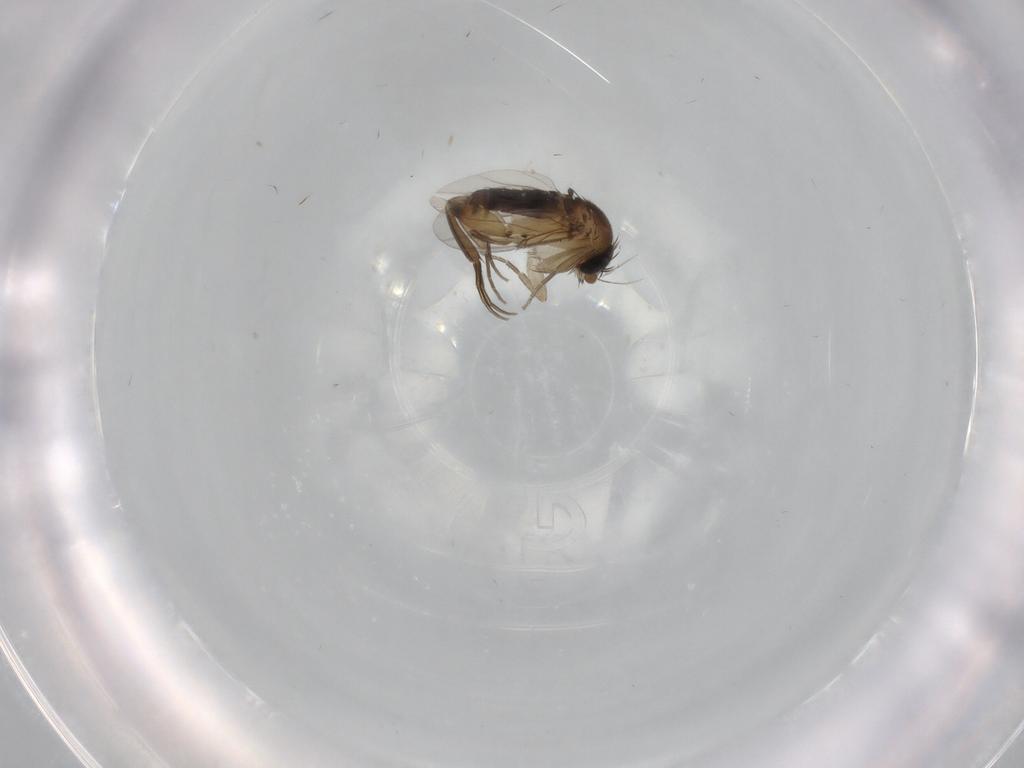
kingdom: Animalia
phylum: Arthropoda
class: Insecta
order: Diptera
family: Phoridae
